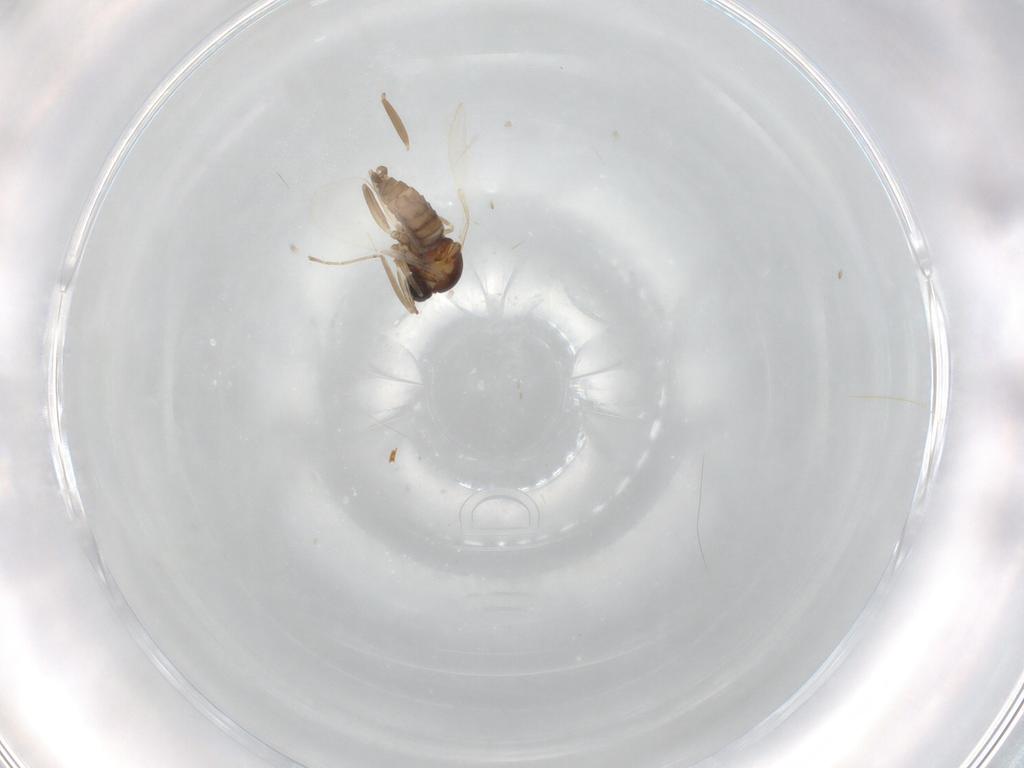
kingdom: Animalia
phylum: Arthropoda
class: Insecta
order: Diptera
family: Cecidomyiidae
